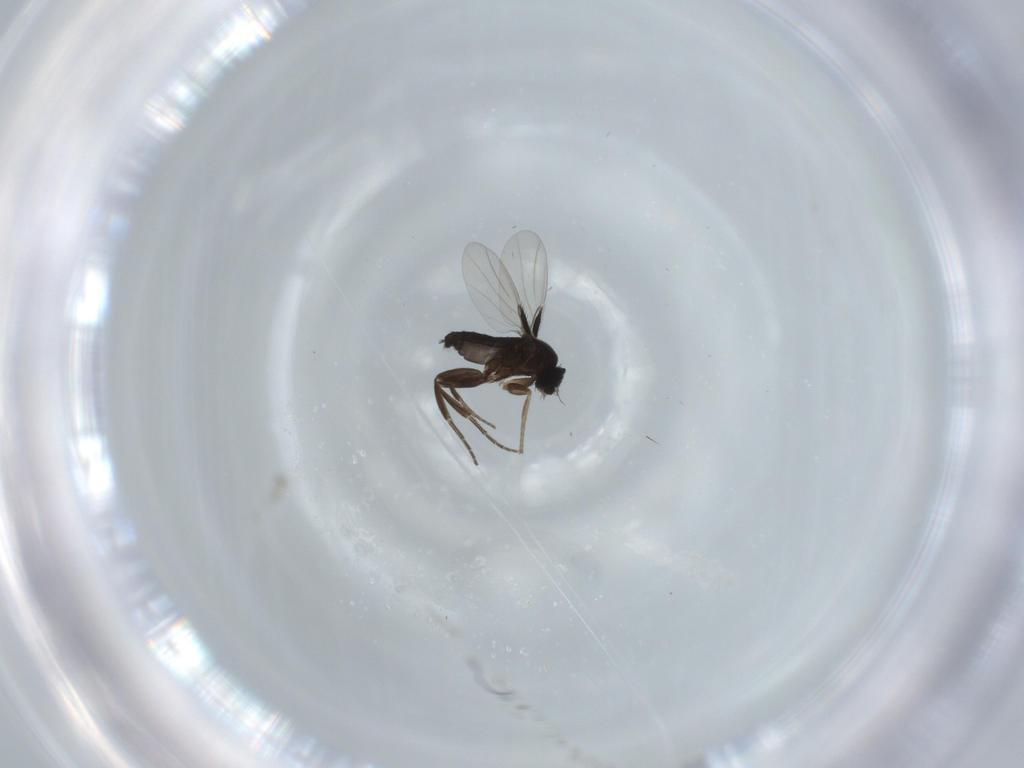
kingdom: Animalia
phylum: Arthropoda
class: Insecta
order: Diptera
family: Phoridae
